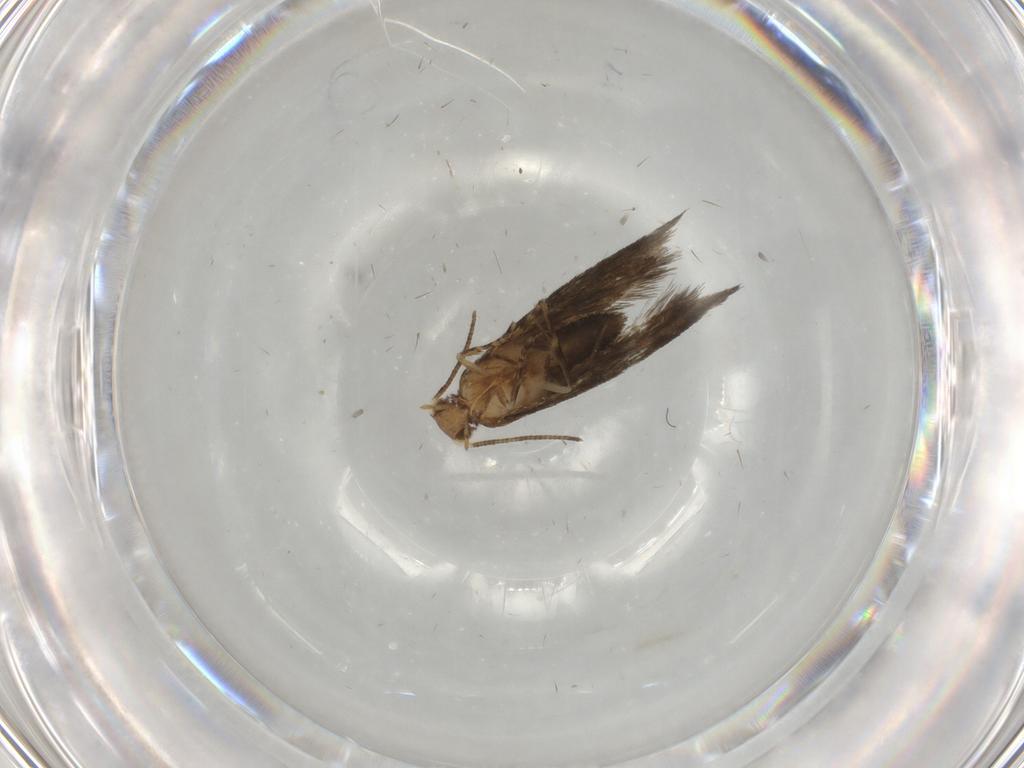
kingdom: Animalia
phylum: Arthropoda
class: Insecta
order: Lepidoptera
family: Tineidae
